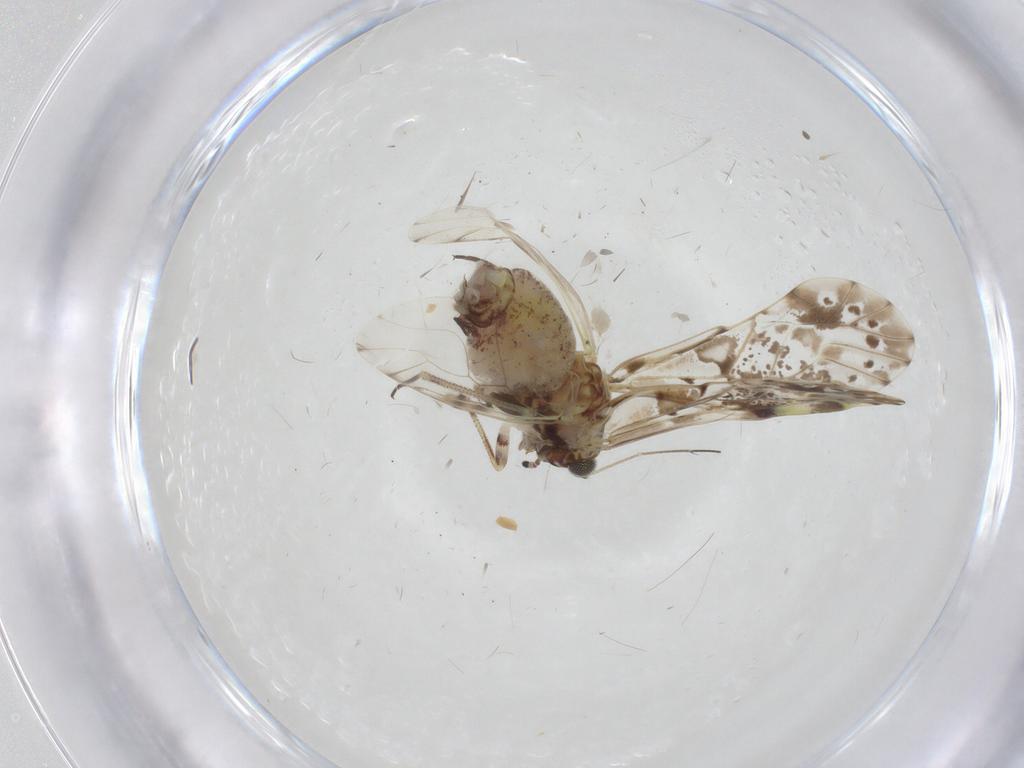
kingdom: Animalia
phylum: Arthropoda
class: Insecta
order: Psocodea
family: Psocidae
